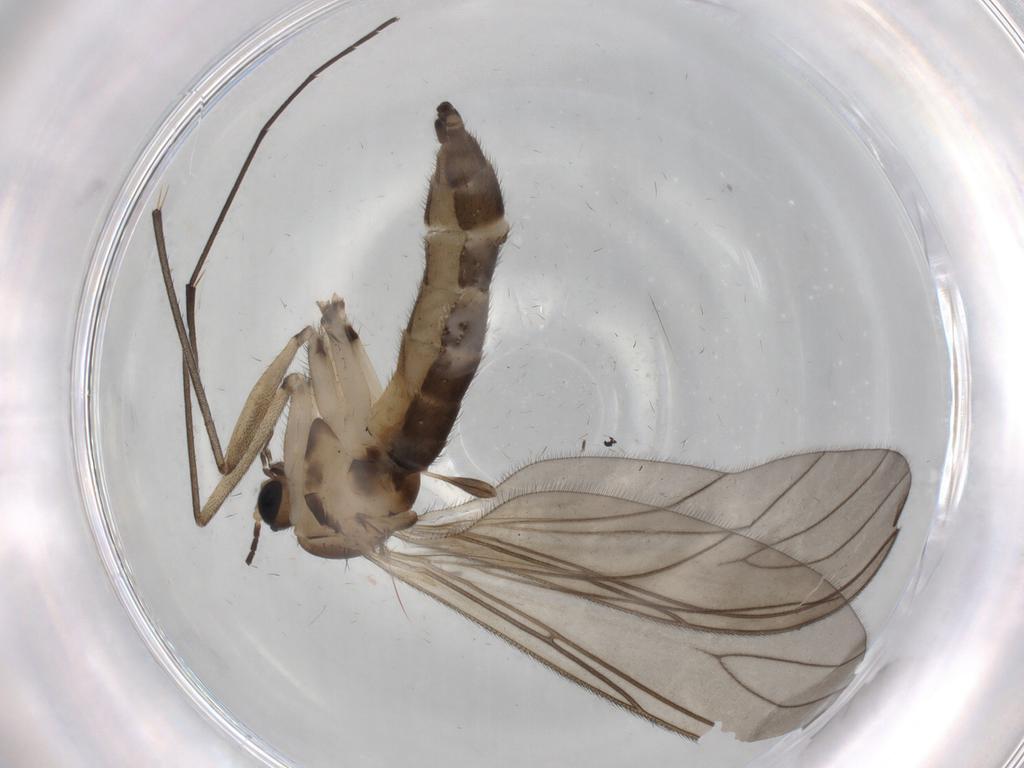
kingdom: Animalia
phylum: Arthropoda
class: Insecta
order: Diptera
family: Sciaridae
